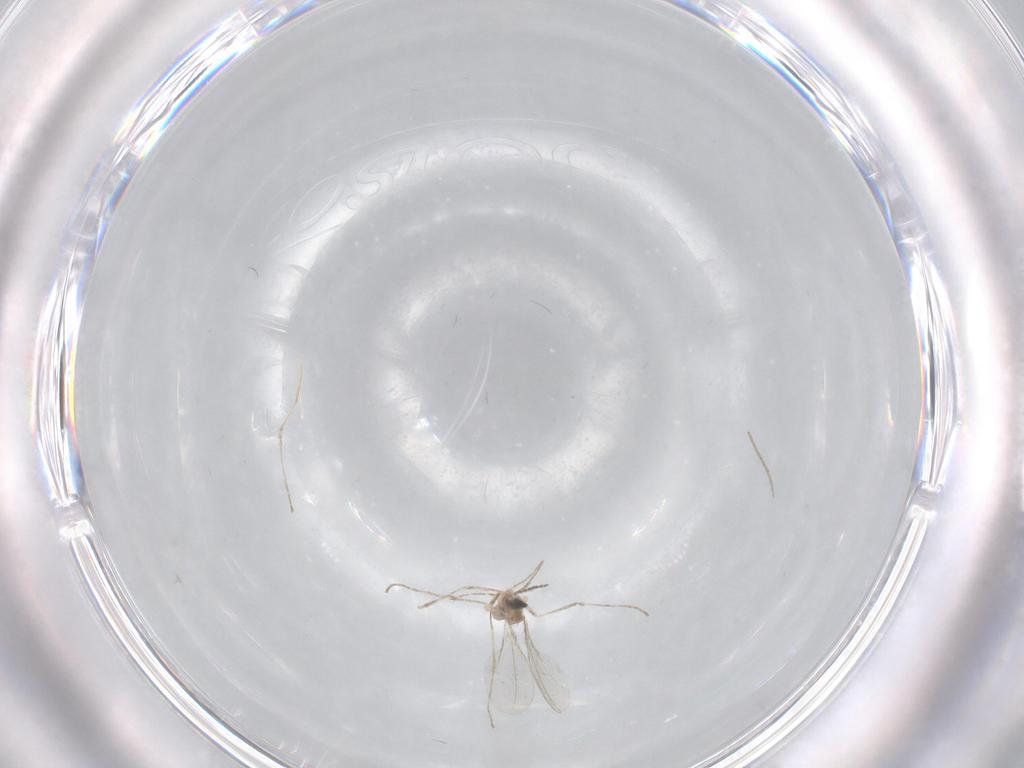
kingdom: Animalia
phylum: Arthropoda
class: Insecta
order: Diptera
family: Chironomidae
